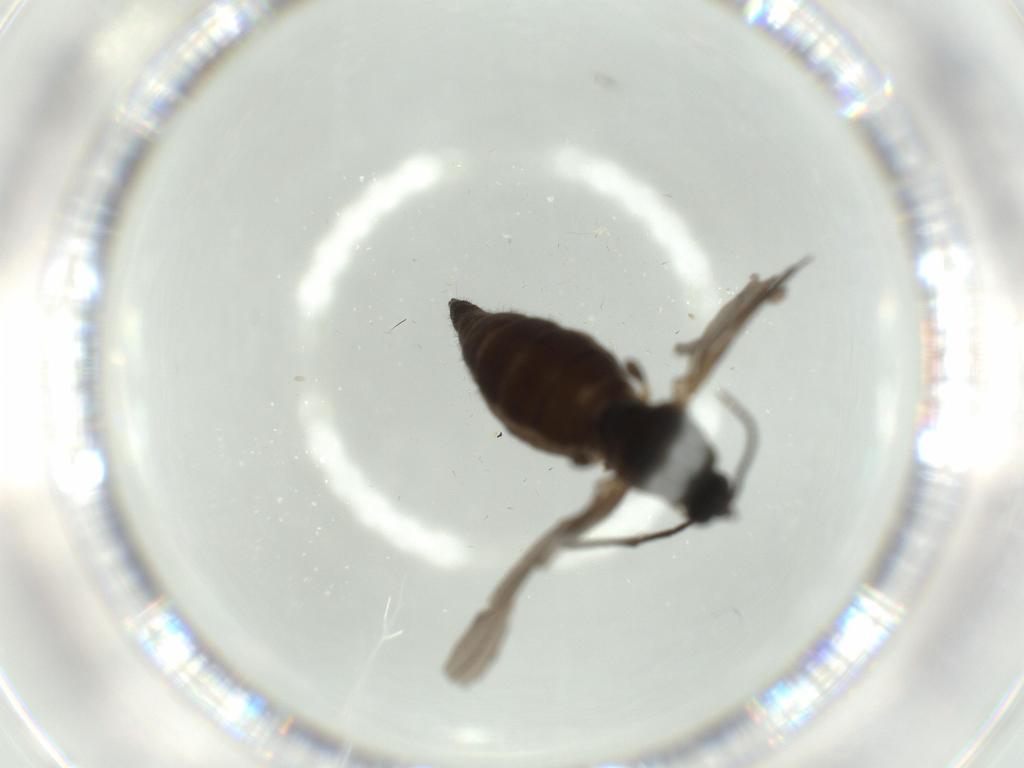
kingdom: Animalia
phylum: Arthropoda
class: Insecta
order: Diptera
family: Sciaridae
